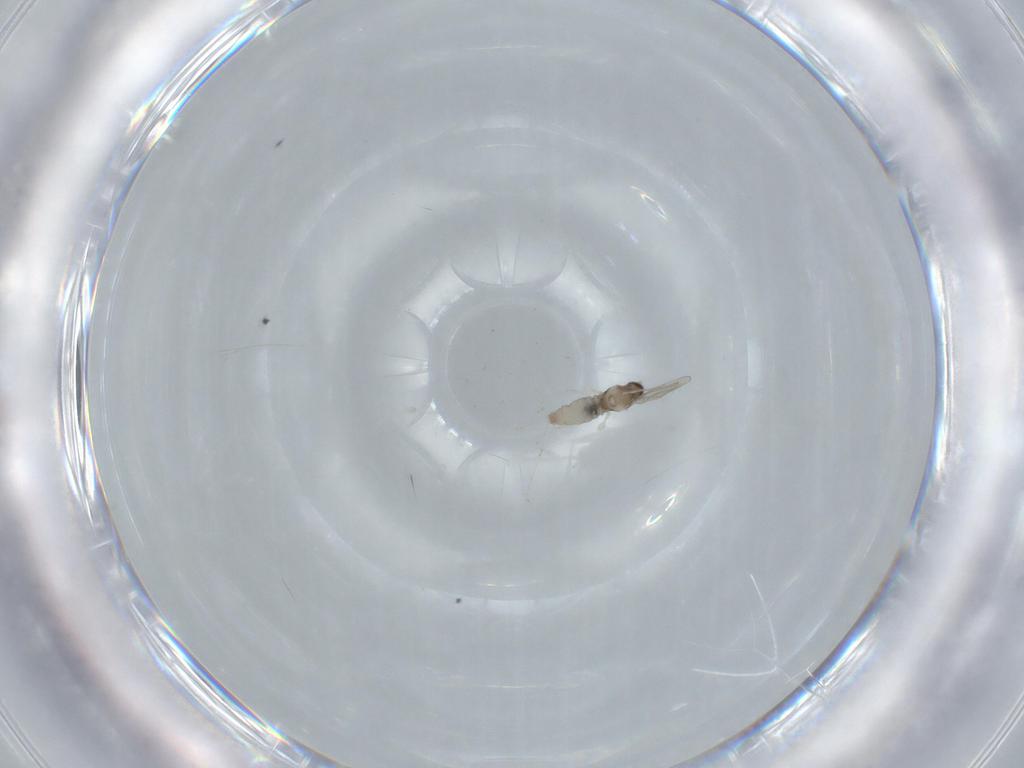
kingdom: Animalia
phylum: Arthropoda
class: Insecta
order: Diptera
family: Cecidomyiidae
